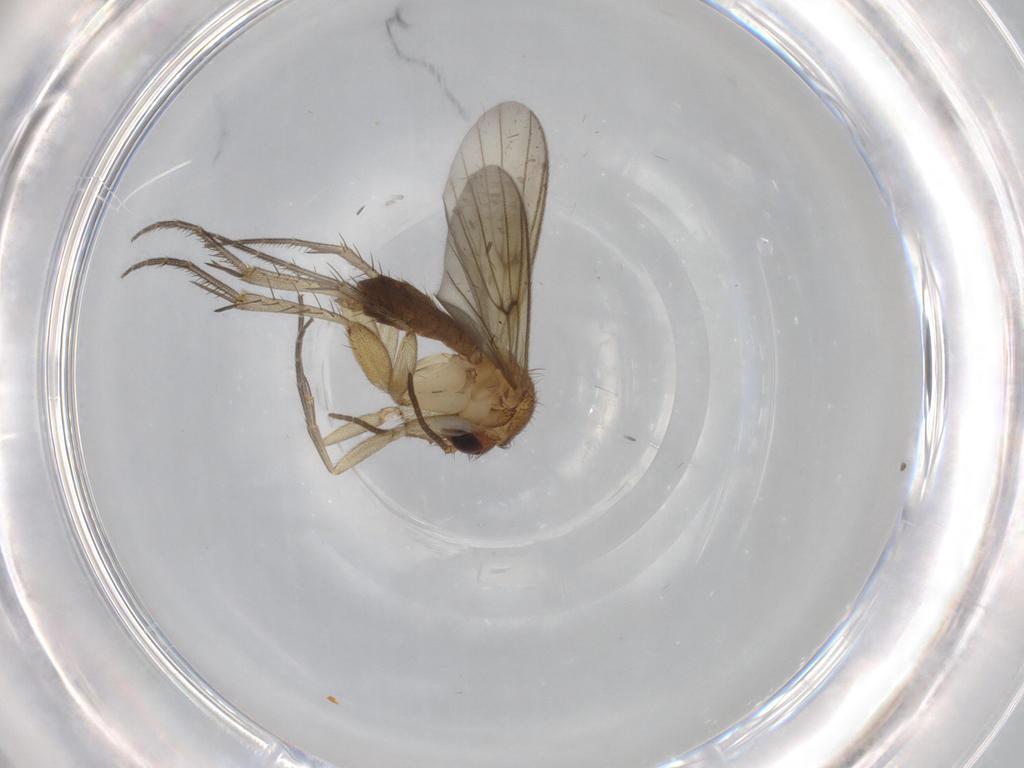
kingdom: Animalia
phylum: Arthropoda
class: Insecta
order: Diptera
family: Mycetophilidae
